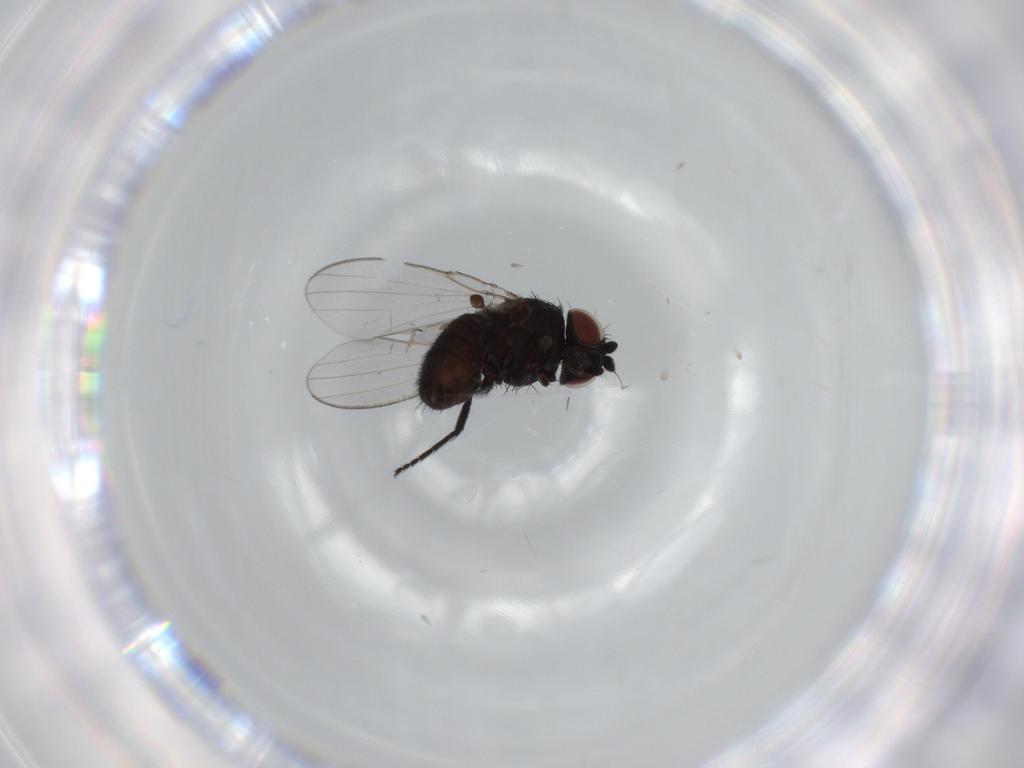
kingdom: Animalia
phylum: Arthropoda
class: Insecta
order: Diptera
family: Milichiidae
